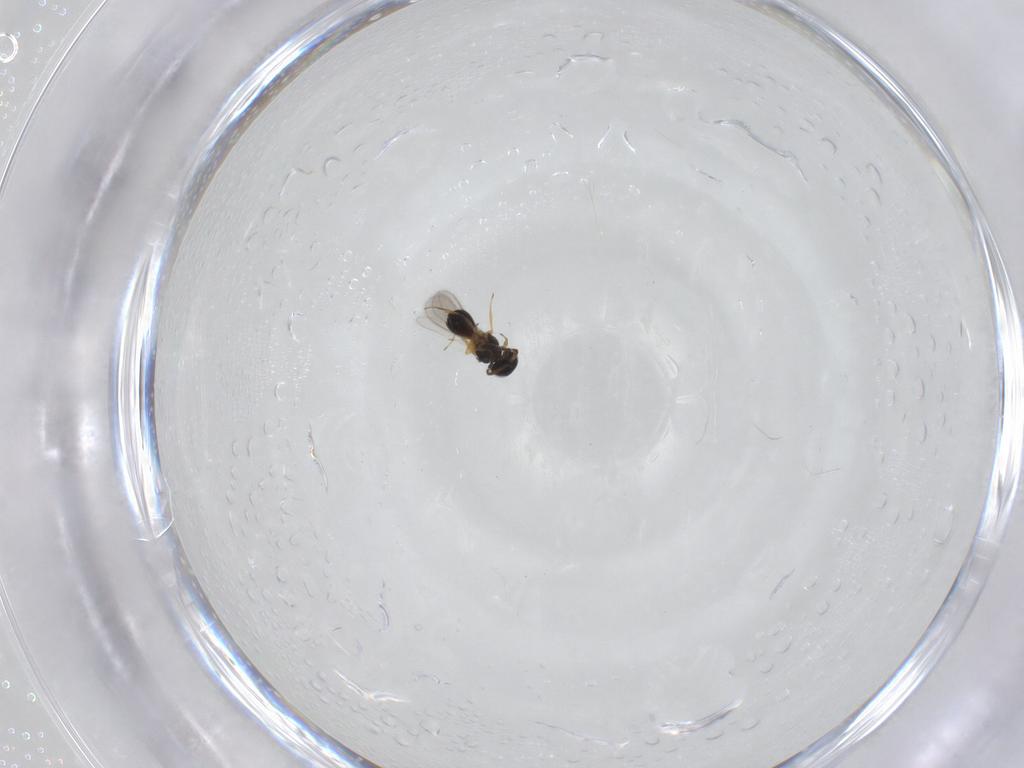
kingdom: Animalia
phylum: Arthropoda
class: Insecta
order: Hymenoptera
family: Scelionidae
